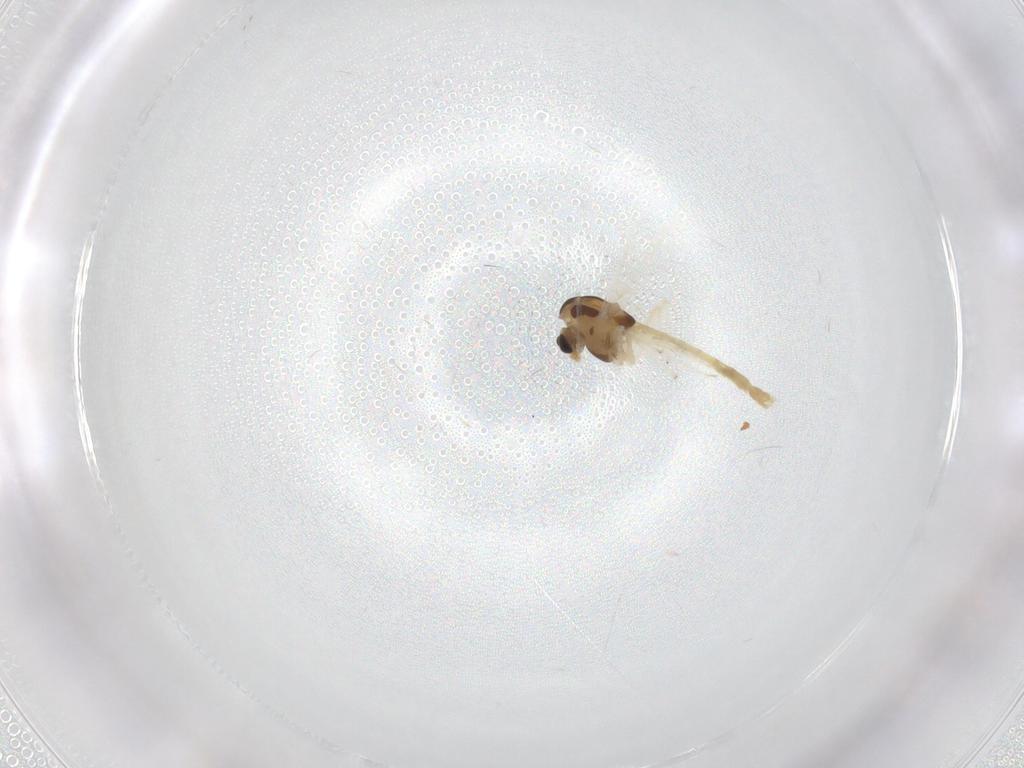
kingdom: Animalia
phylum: Arthropoda
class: Insecta
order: Diptera
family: Chironomidae
